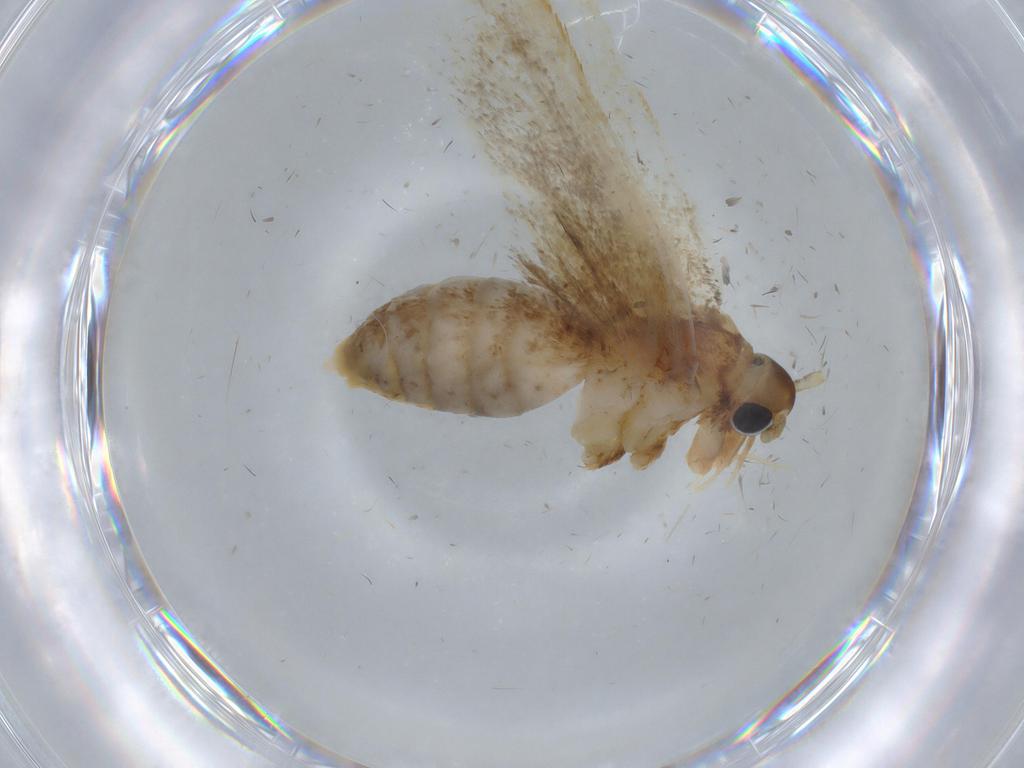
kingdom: Animalia
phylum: Arthropoda
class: Insecta
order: Lepidoptera
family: Lecithoceridae
